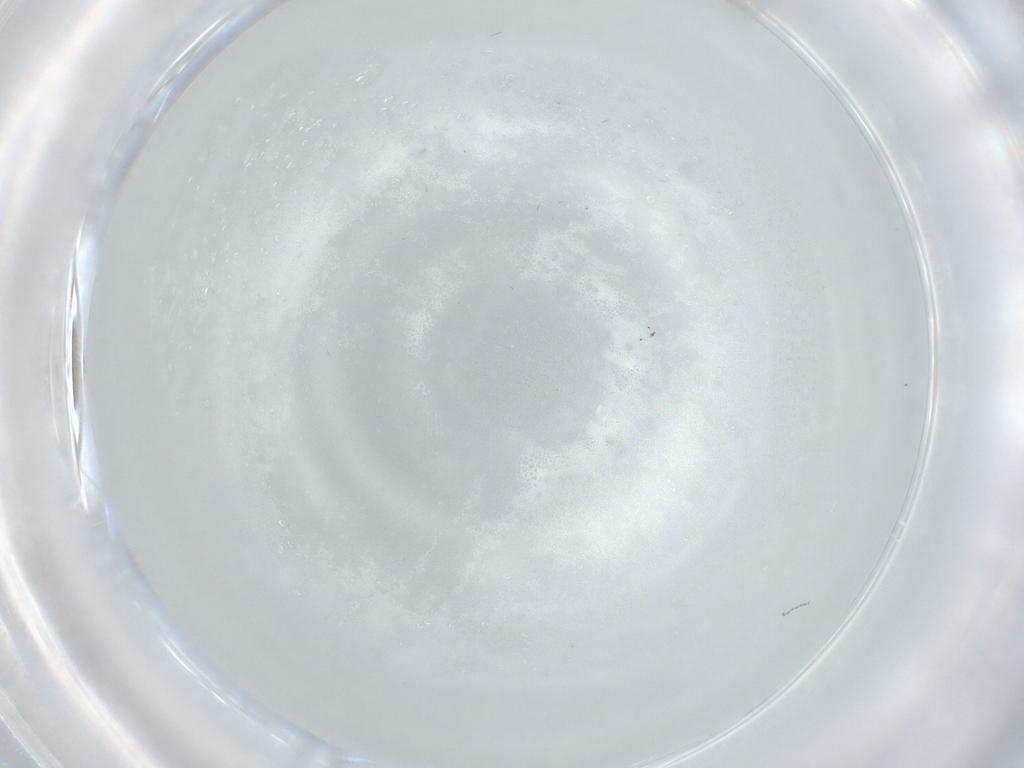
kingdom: Animalia
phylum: Arthropoda
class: Insecta
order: Diptera
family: Cecidomyiidae
